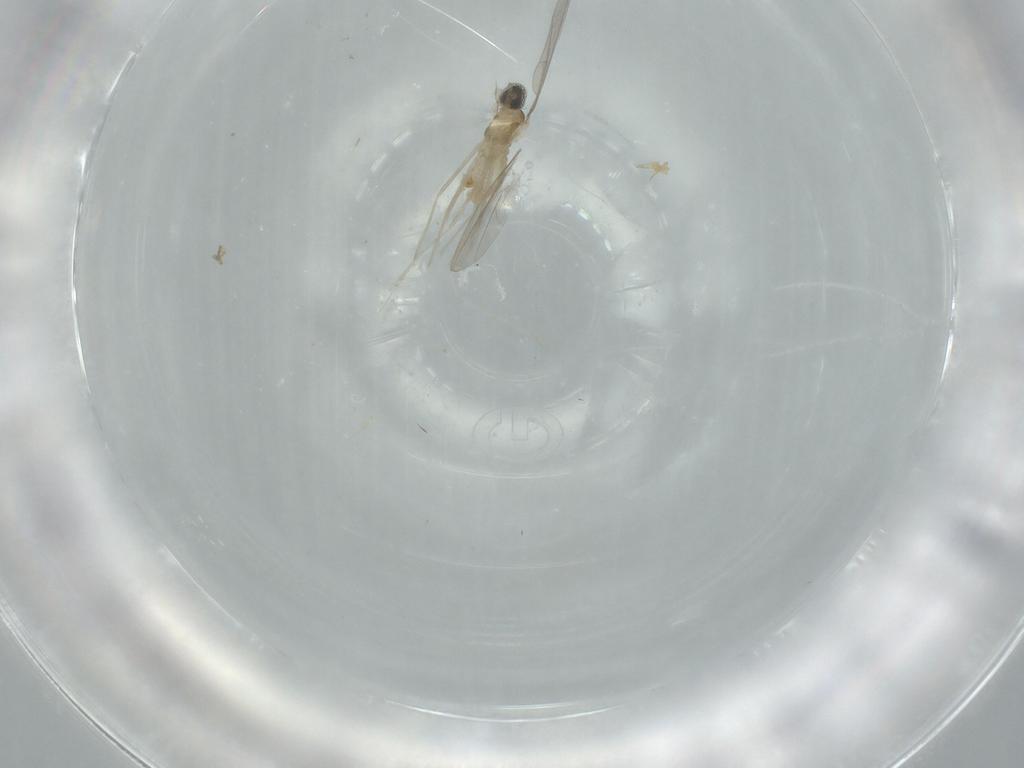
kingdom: Animalia
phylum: Arthropoda
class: Insecta
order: Diptera
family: Cecidomyiidae
